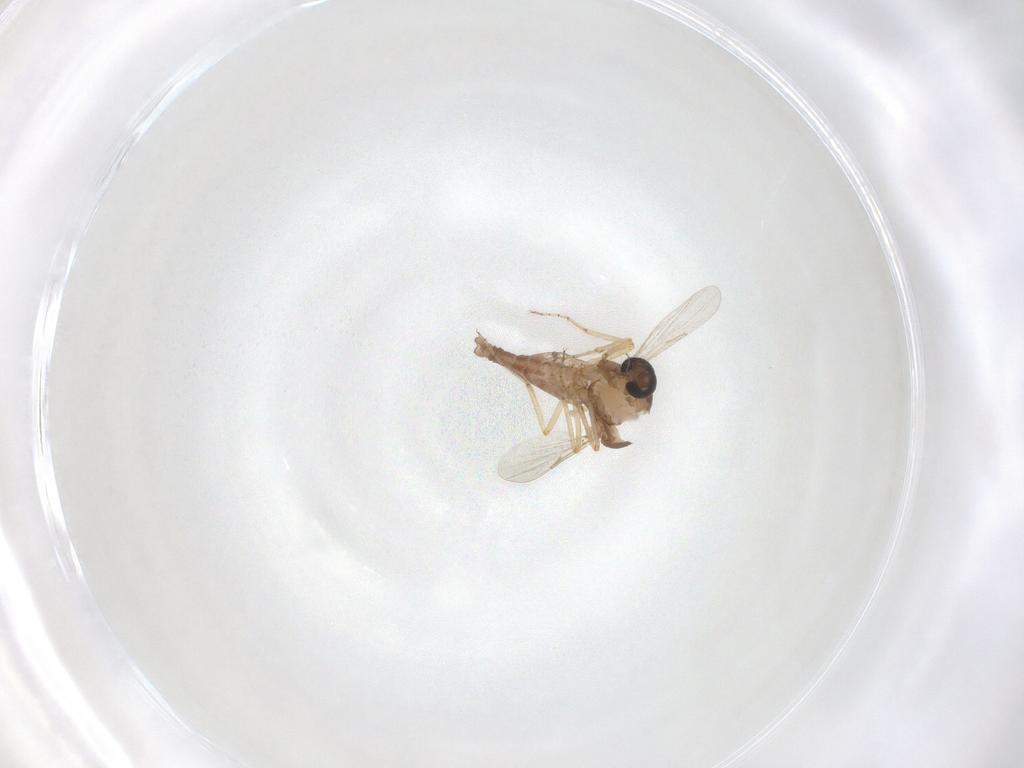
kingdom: Animalia
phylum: Arthropoda
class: Insecta
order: Diptera
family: Ceratopogonidae
